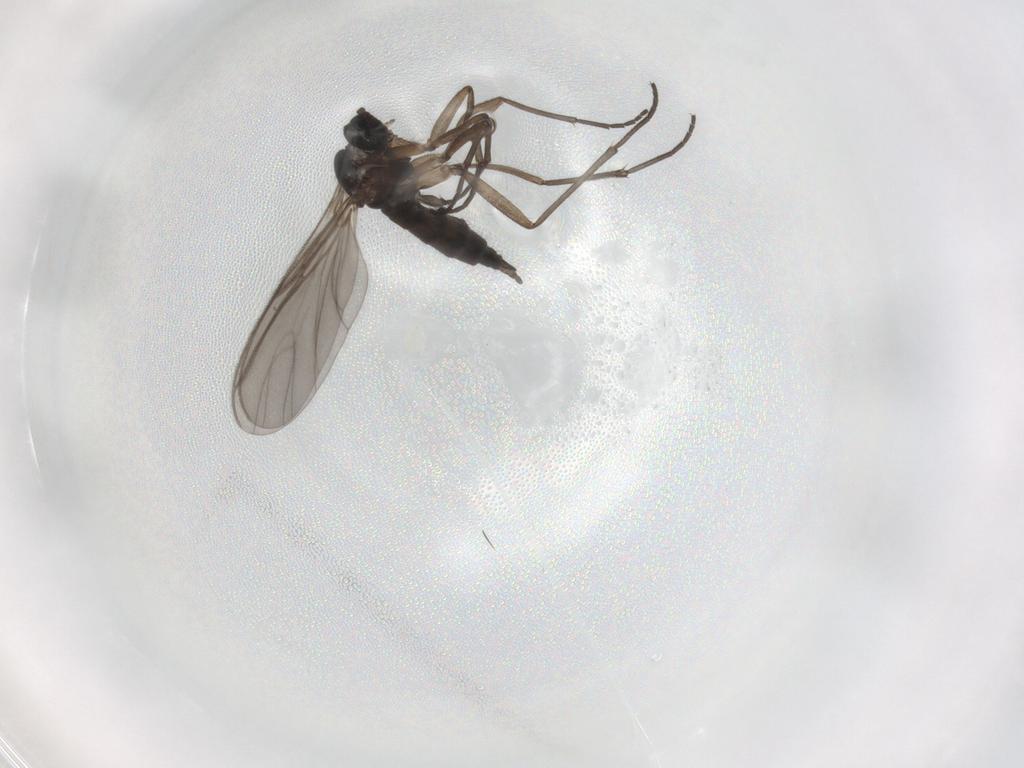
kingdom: Animalia
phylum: Arthropoda
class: Insecta
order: Diptera
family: Sciaridae
